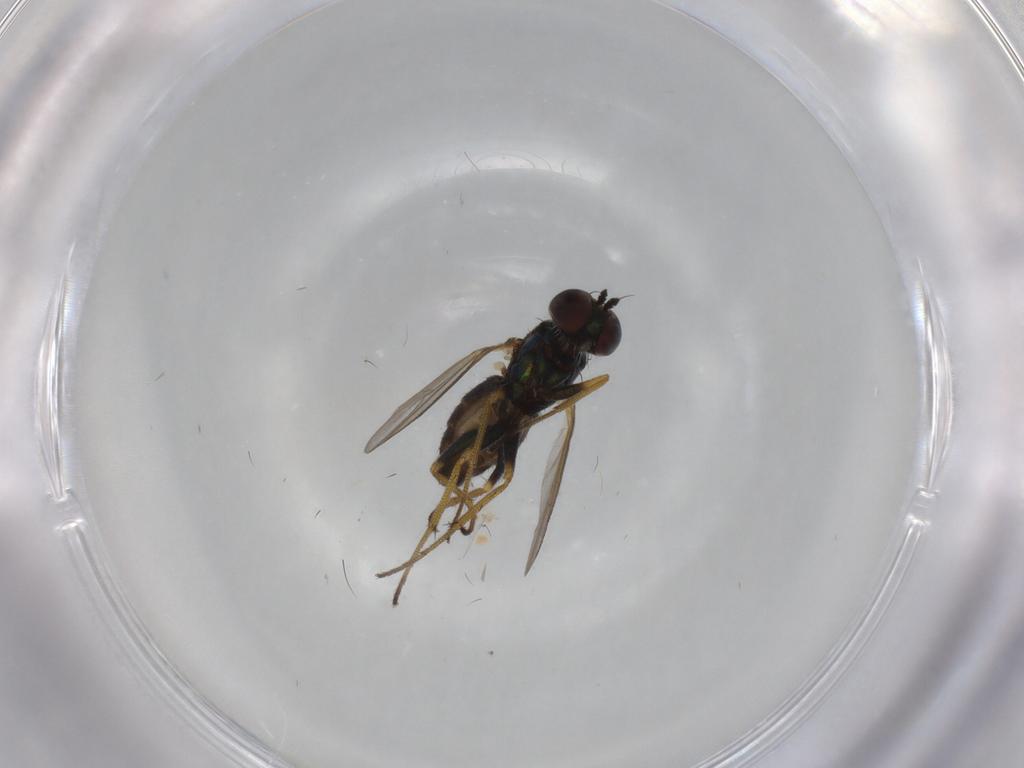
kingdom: Animalia
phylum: Arthropoda
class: Insecta
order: Diptera
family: Dolichopodidae
